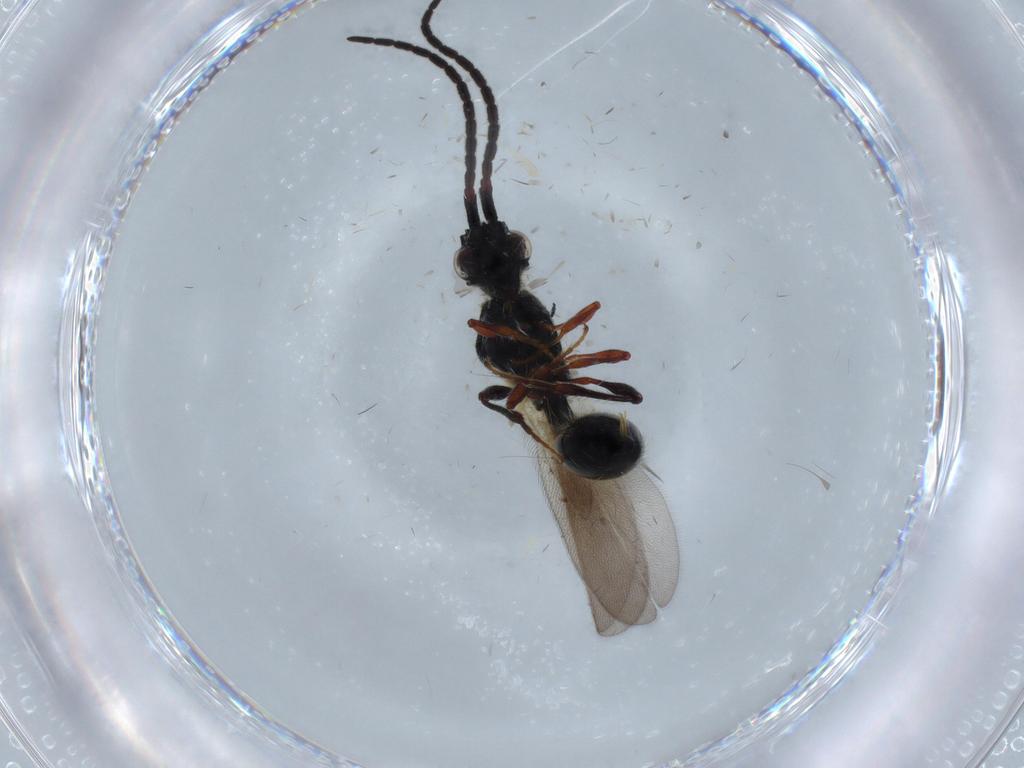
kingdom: Animalia
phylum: Arthropoda
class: Insecta
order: Hymenoptera
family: Diapriidae
